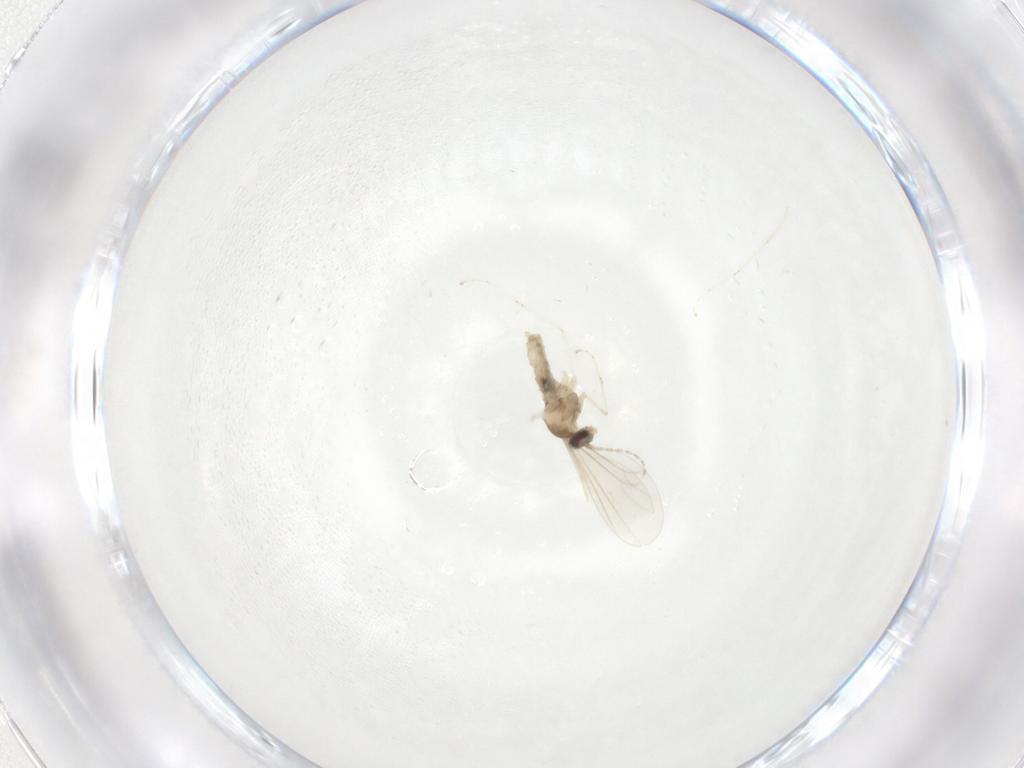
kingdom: Animalia
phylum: Arthropoda
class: Insecta
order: Diptera
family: Cecidomyiidae
